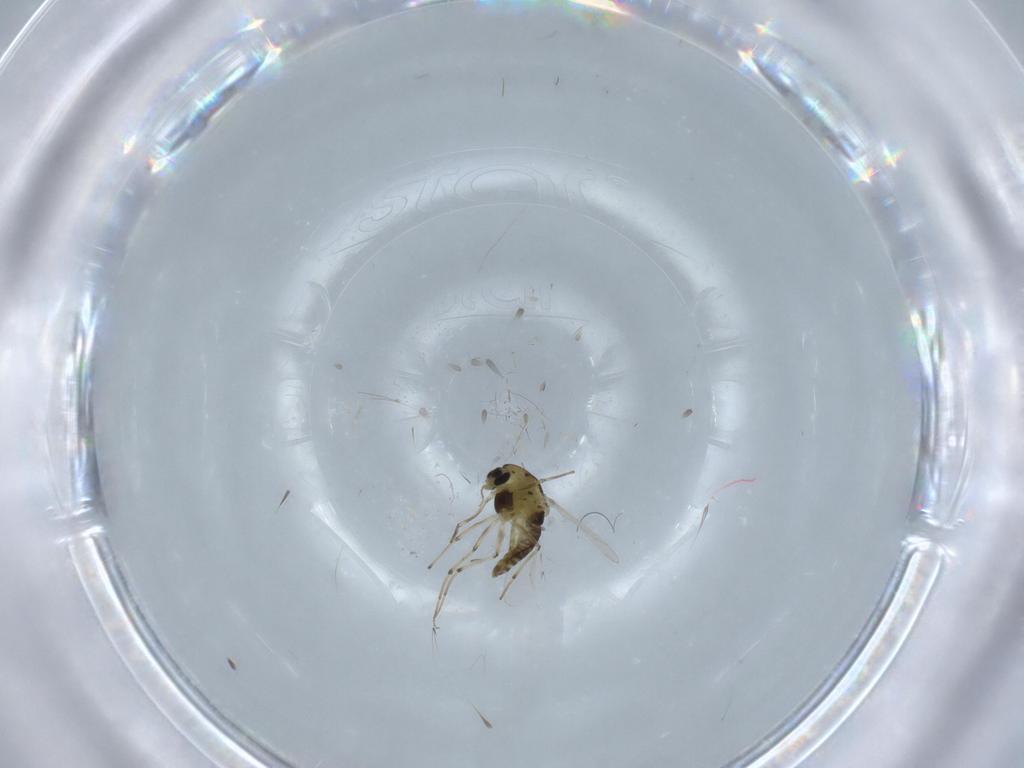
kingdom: Animalia
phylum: Arthropoda
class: Insecta
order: Diptera
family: Chironomidae
